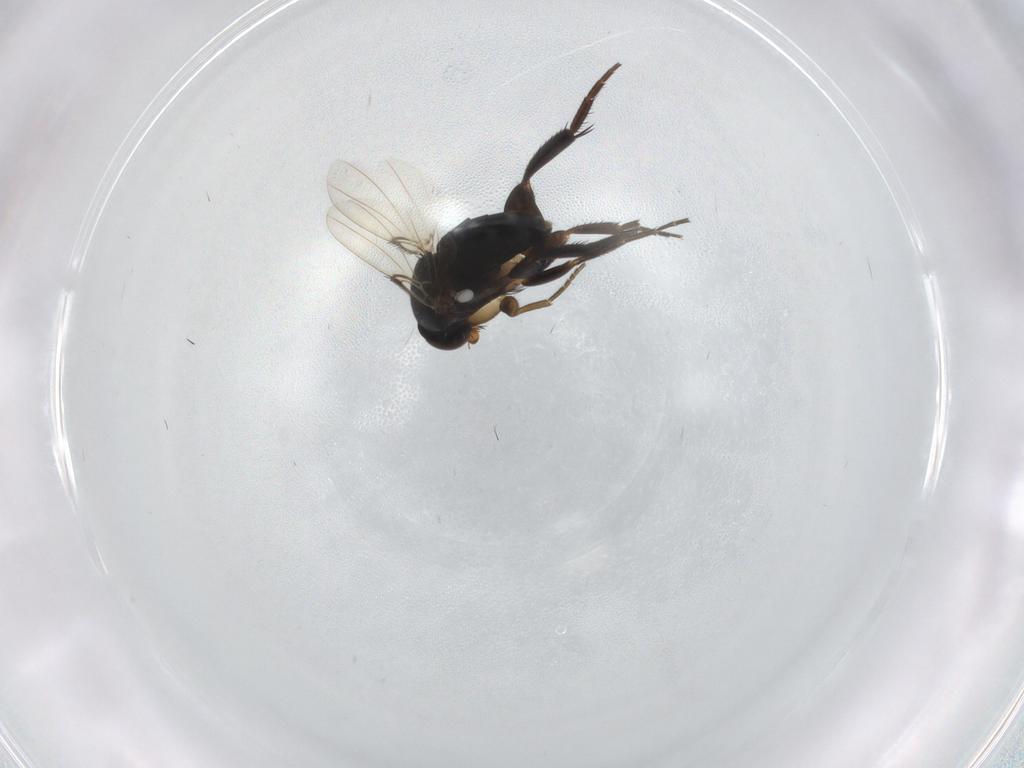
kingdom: Animalia
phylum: Arthropoda
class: Insecta
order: Diptera
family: Phoridae
